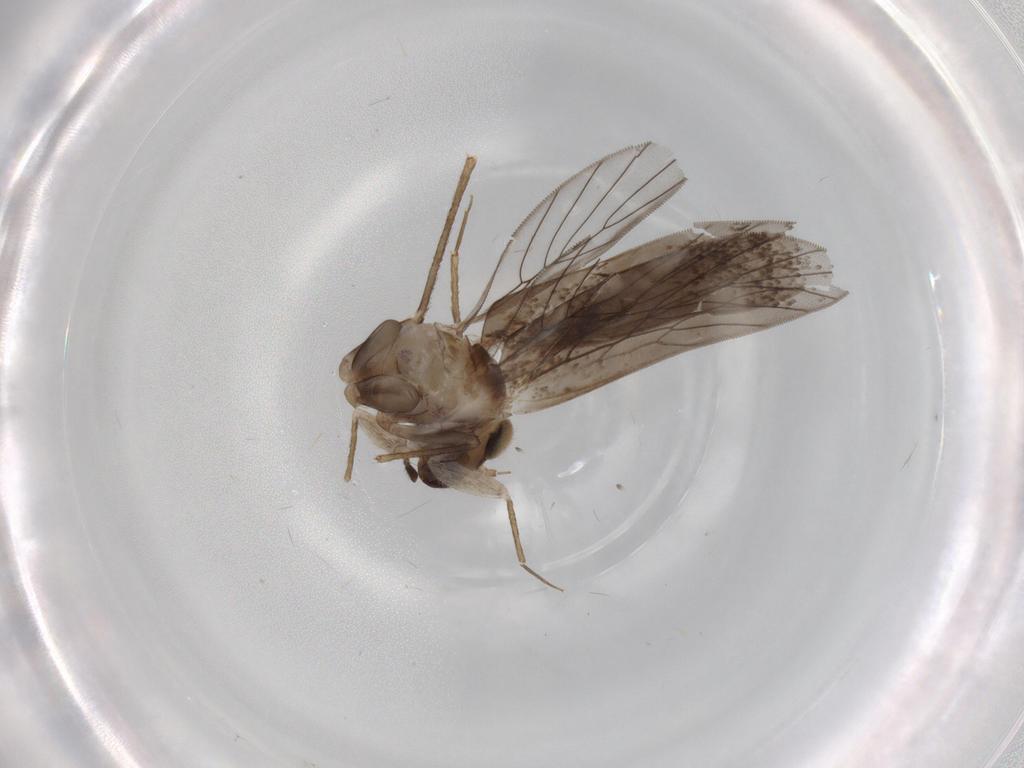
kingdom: Animalia
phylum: Arthropoda
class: Insecta
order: Psocodea
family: Lepidopsocidae
